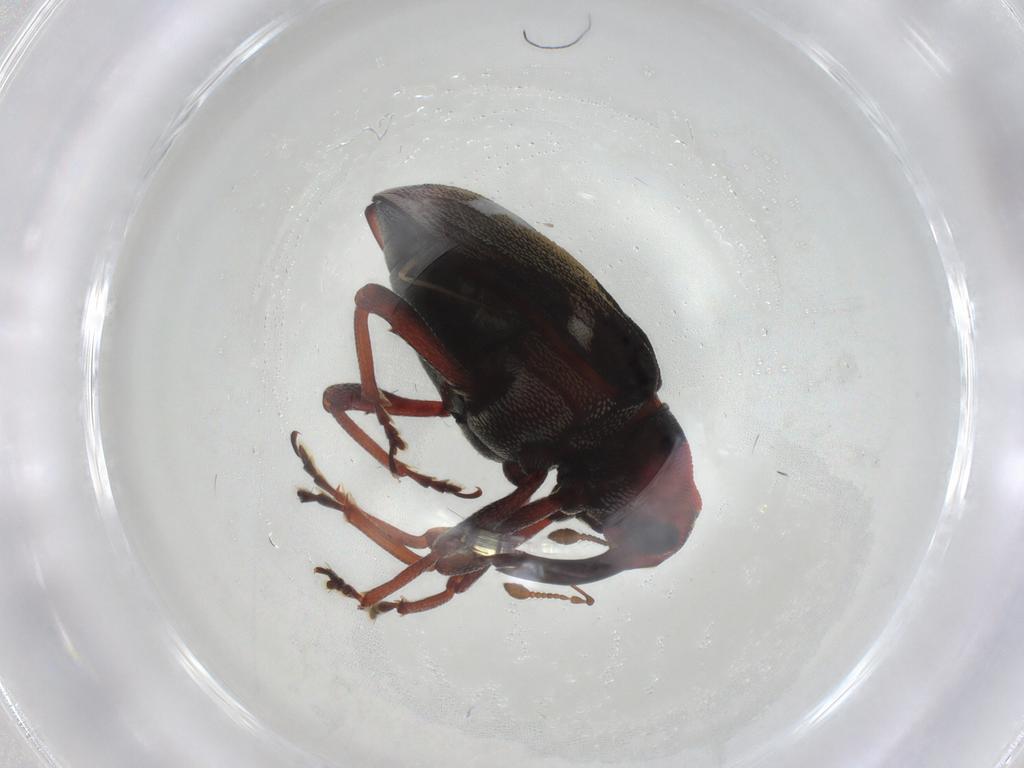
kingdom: Animalia
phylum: Arthropoda
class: Insecta
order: Coleoptera
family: Curculionidae
